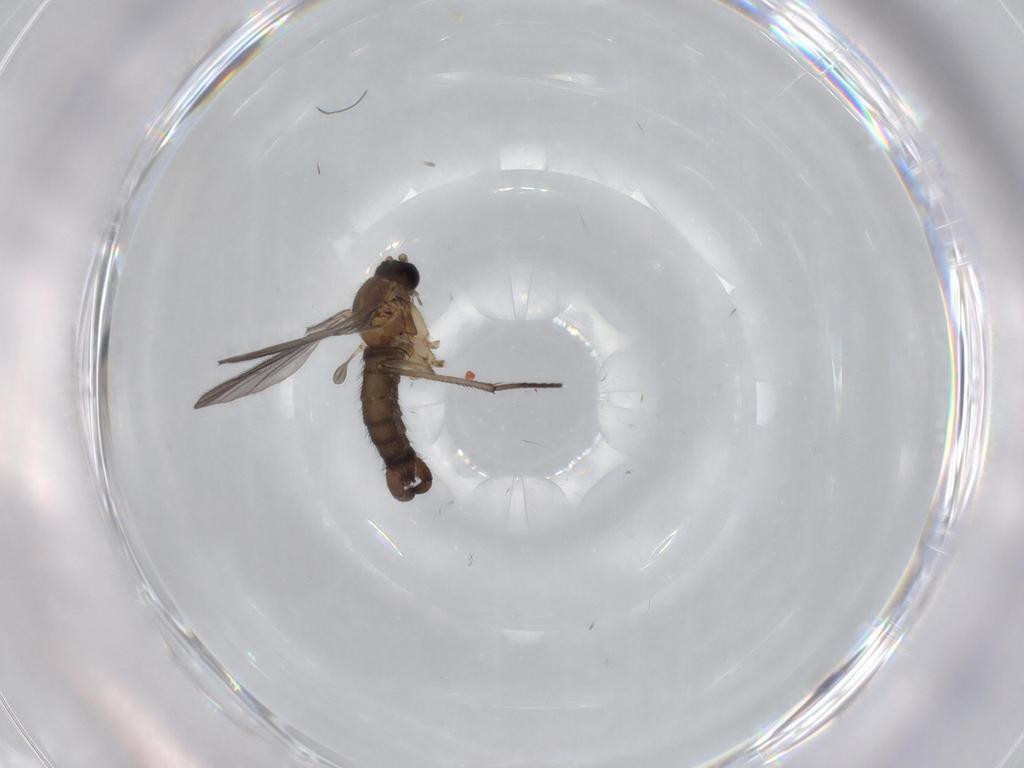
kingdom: Animalia
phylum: Arthropoda
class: Insecta
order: Diptera
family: Sciaridae
